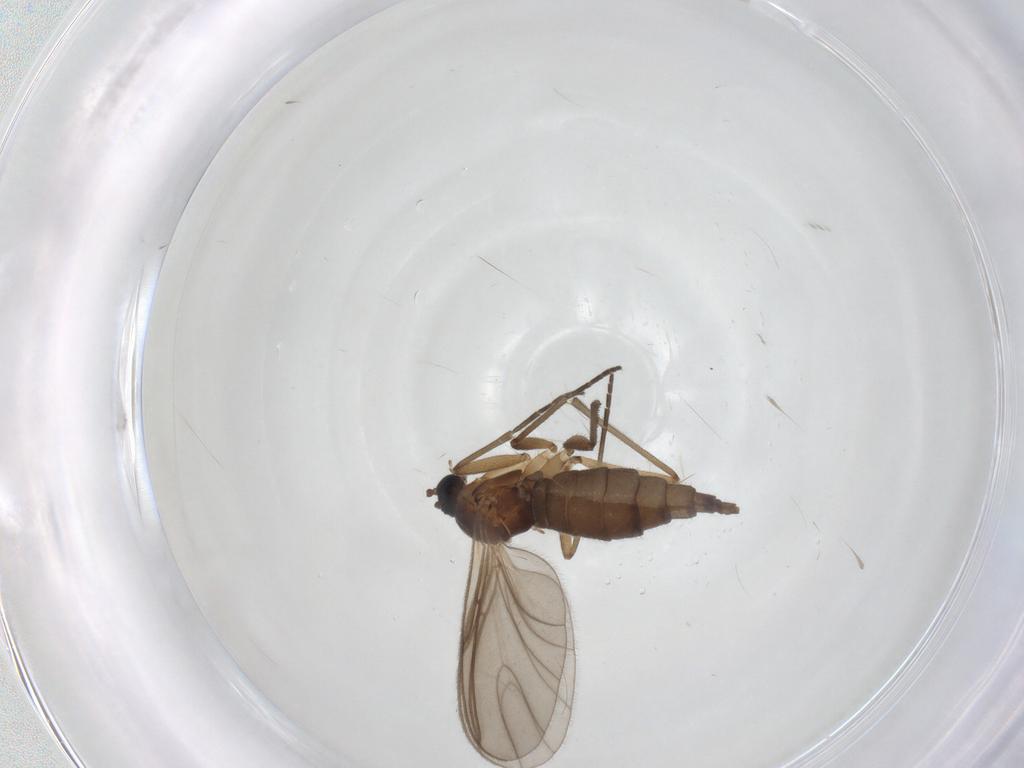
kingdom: Animalia
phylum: Arthropoda
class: Insecta
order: Diptera
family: Sciaridae
